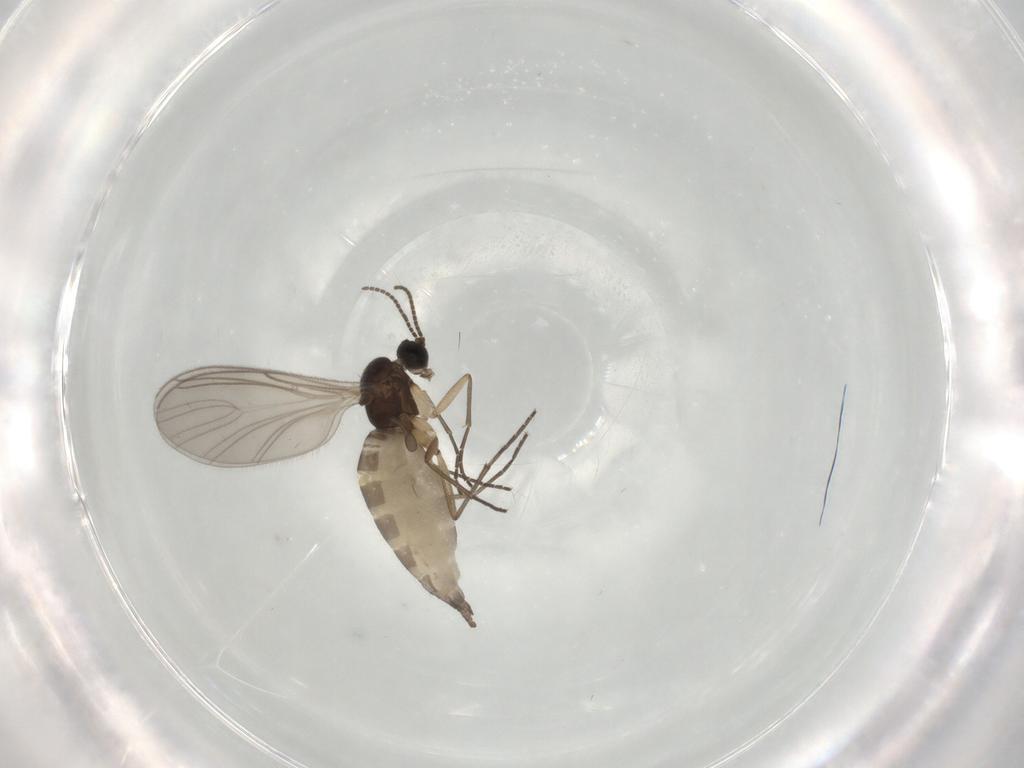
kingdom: Animalia
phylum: Arthropoda
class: Insecta
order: Diptera
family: Sciaridae
